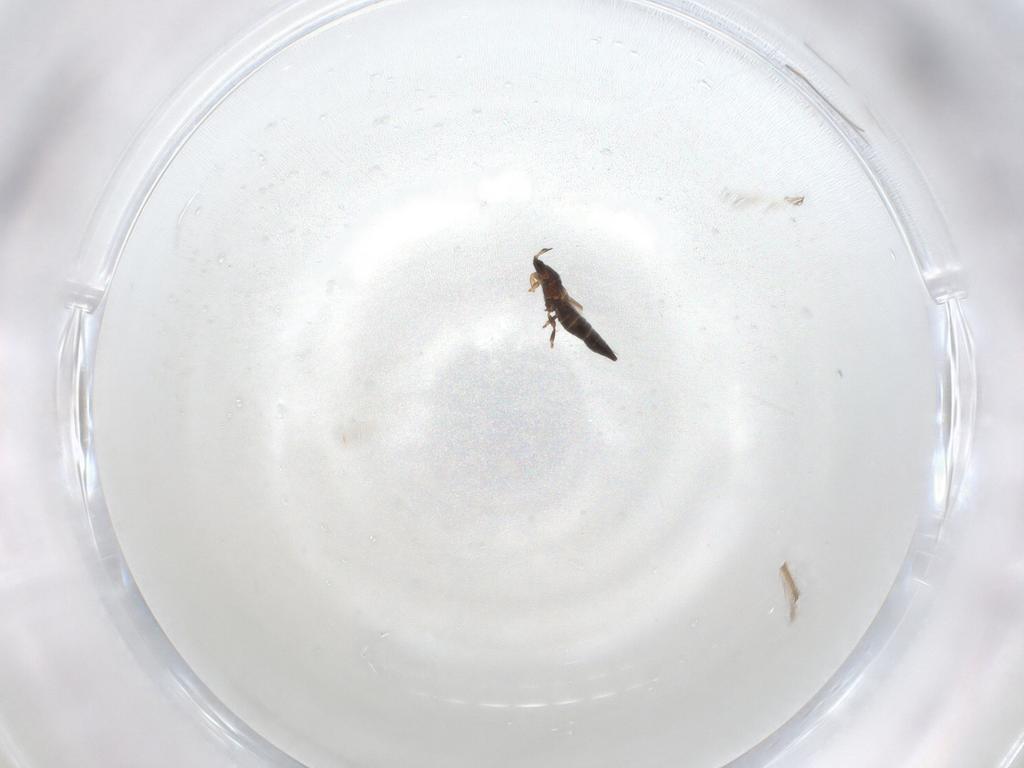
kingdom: Animalia
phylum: Arthropoda
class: Insecta
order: Thysanoptera
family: Heterothripidae
